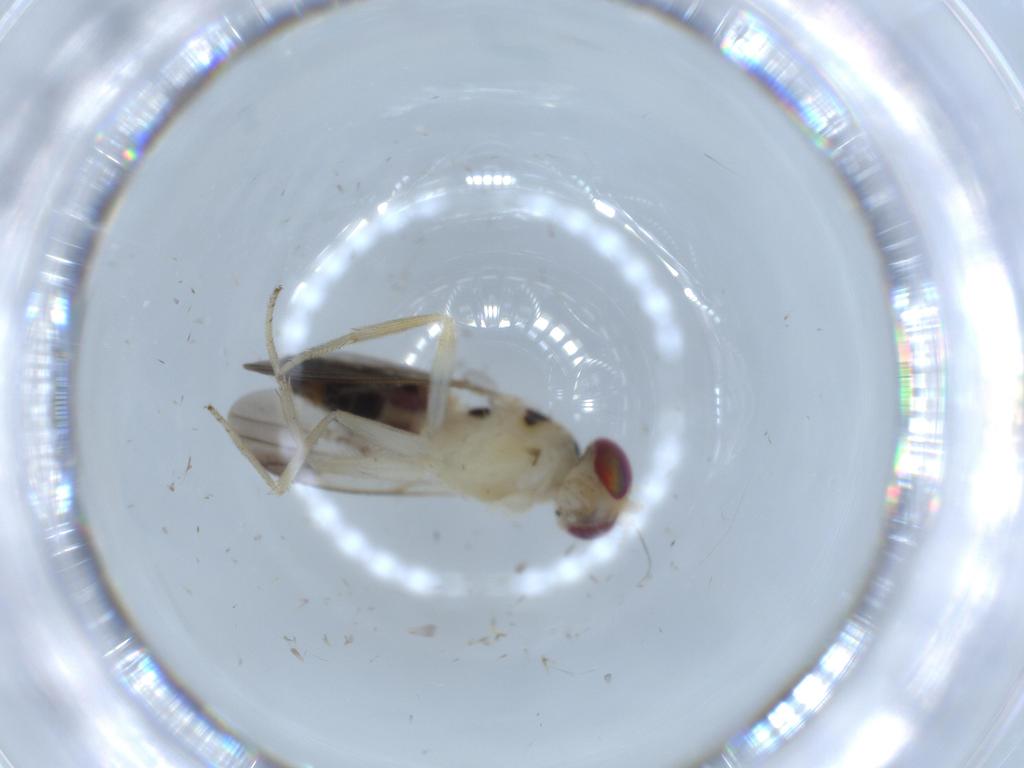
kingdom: Animalia
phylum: Arthropoda
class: Insecta
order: Diptera
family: Clusiidae
